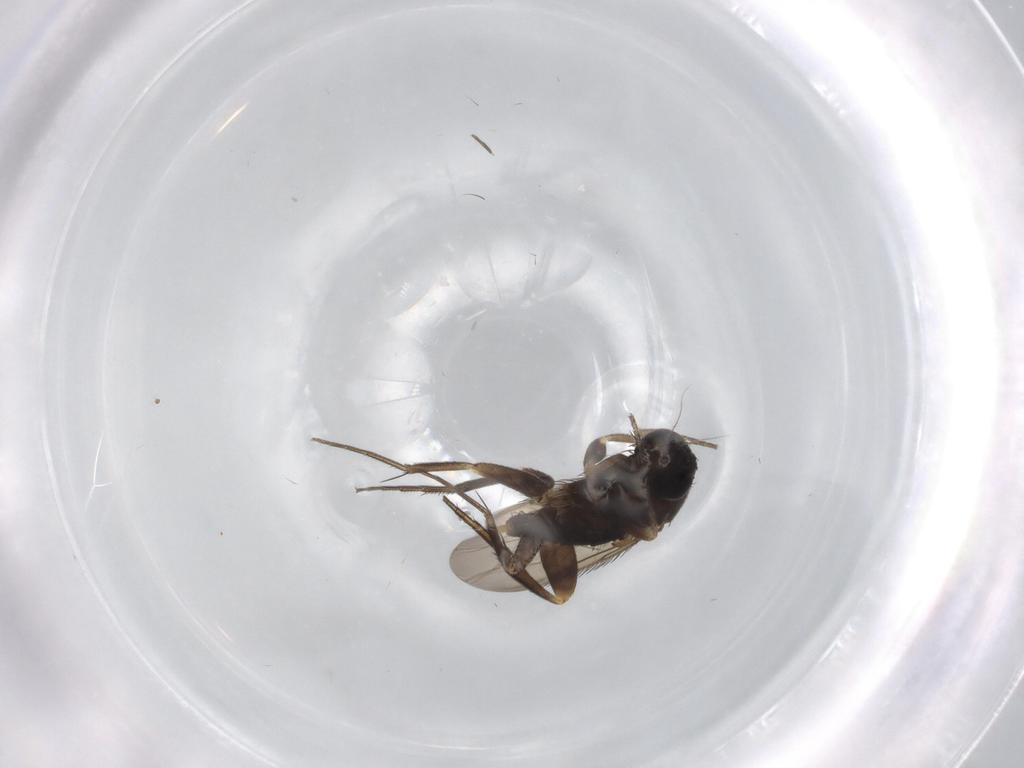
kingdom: Animalia
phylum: Arthropoda
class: Insecta
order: Diptera
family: Phoridae
